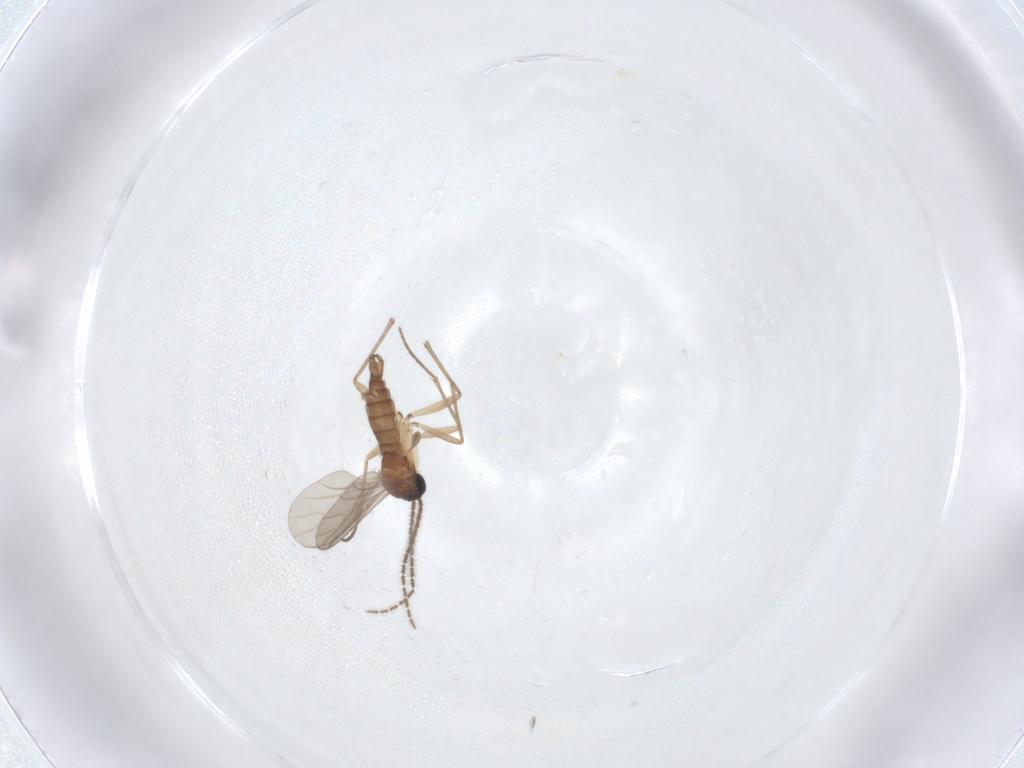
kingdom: Animalia
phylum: Arthropoda
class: Insecta
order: Diptera
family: Sciaridae
